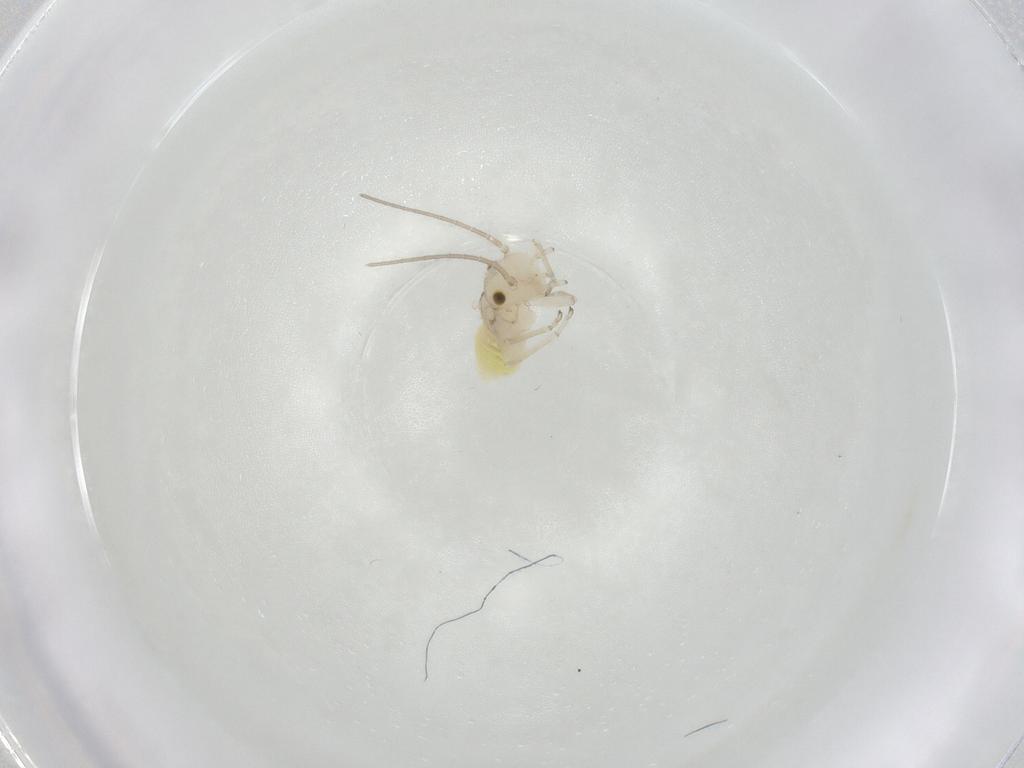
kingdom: Animalia
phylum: Arthropoda
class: Insecta
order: Psocodea
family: Caeciliusidae
